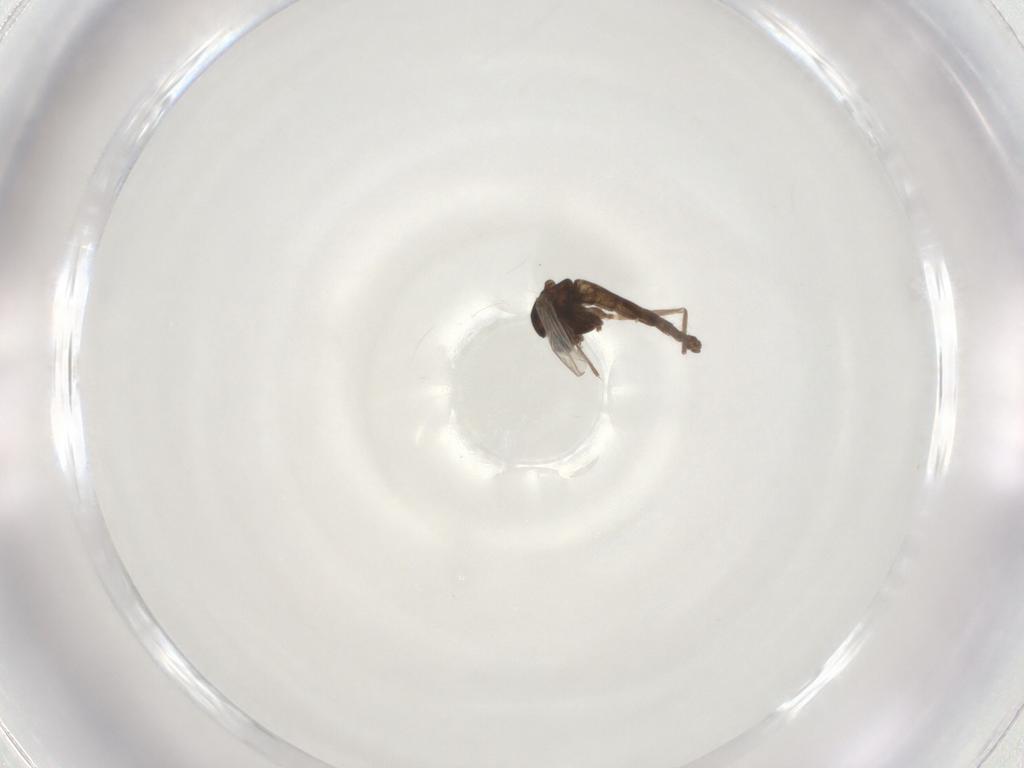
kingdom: Animalia
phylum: Arthropoda
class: Insecta
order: Diptera
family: Chironomidae
